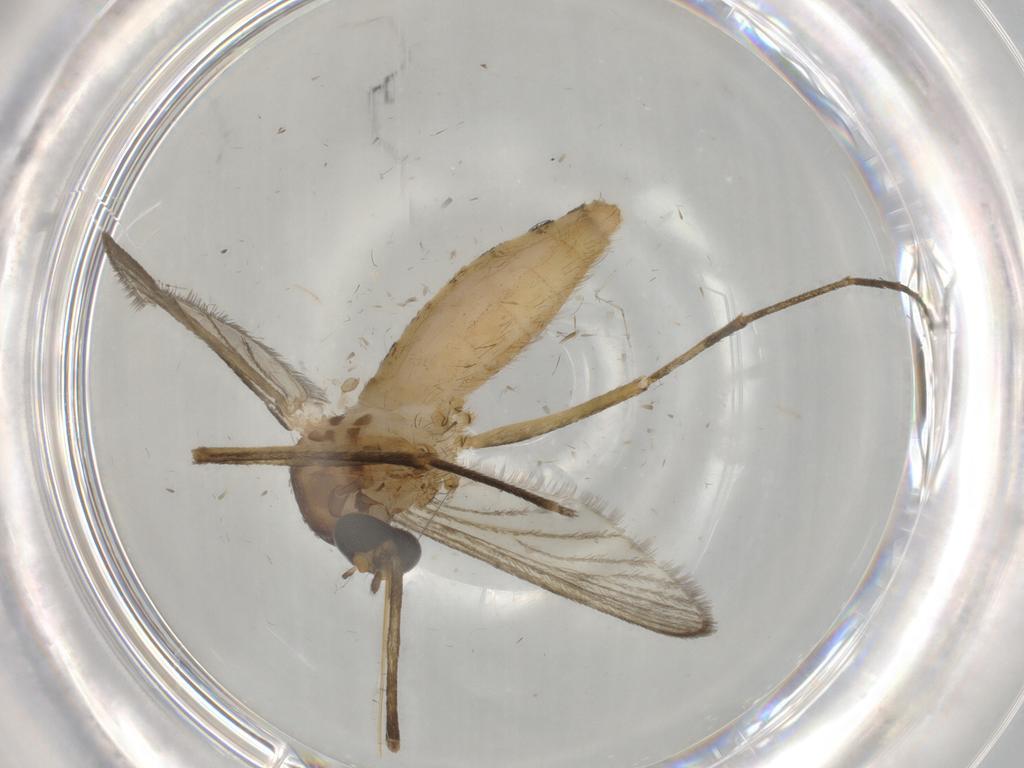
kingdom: Animalia
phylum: Arthropoda
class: Insecta
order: Diptera
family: Culicidae
